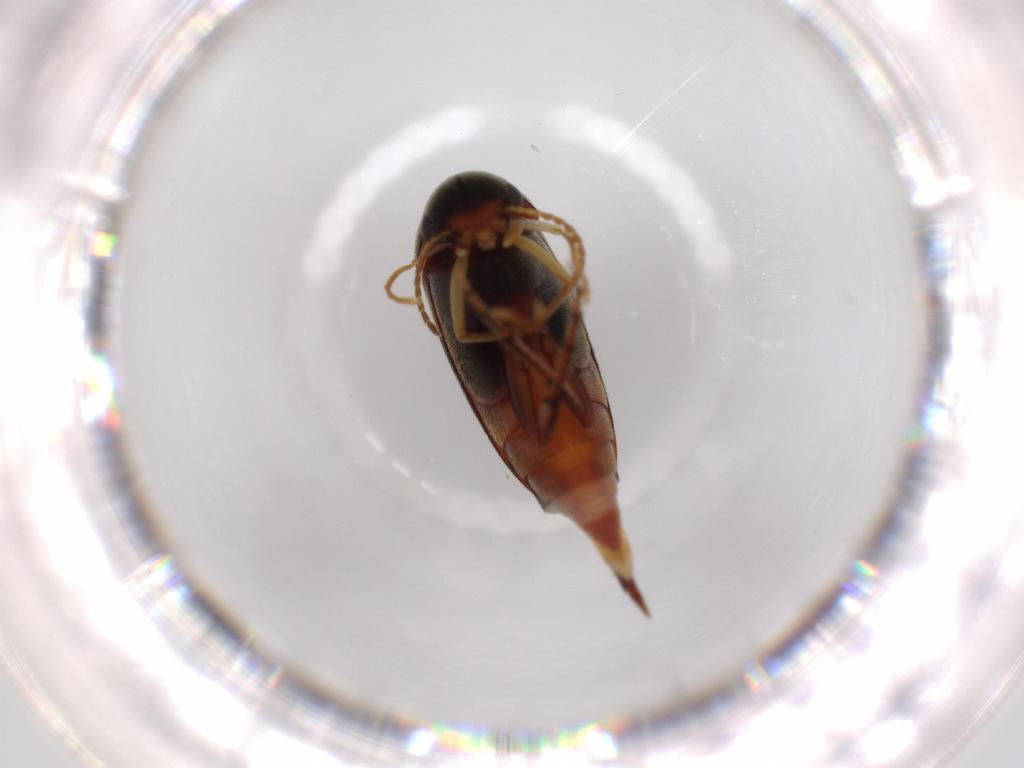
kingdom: Animalia
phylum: Arthropoda
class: Insecta
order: Coleoptera
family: Mordellidae
